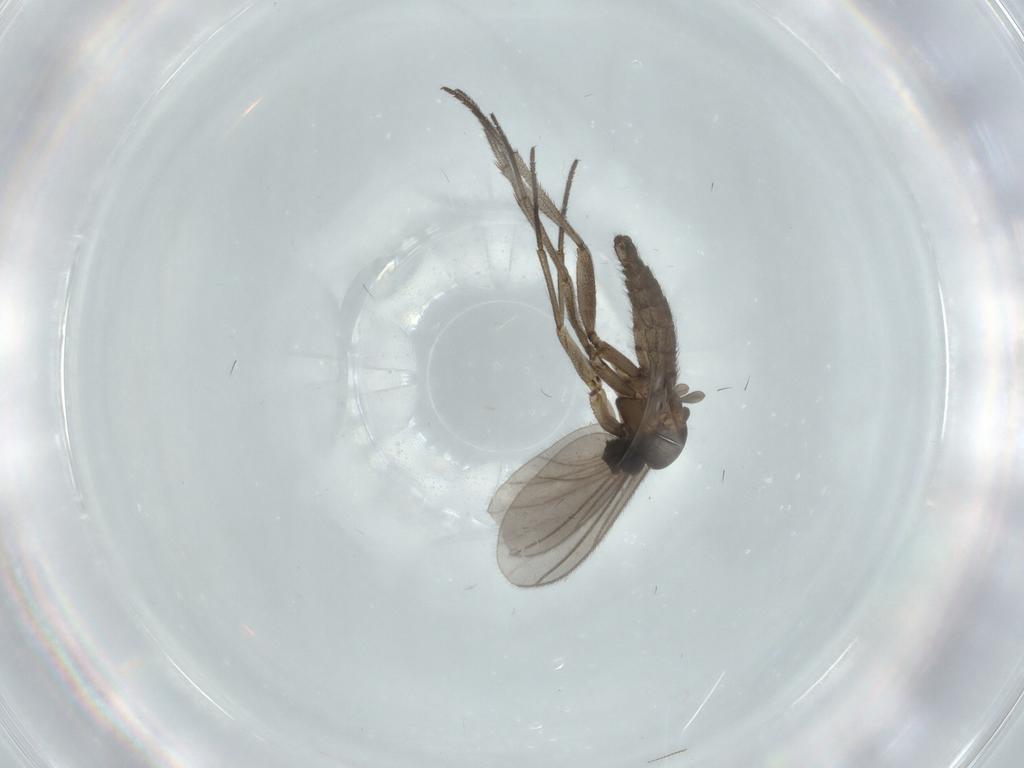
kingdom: Animalia
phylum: Arthropoda
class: Insecta
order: Diptera
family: Sciaridae
